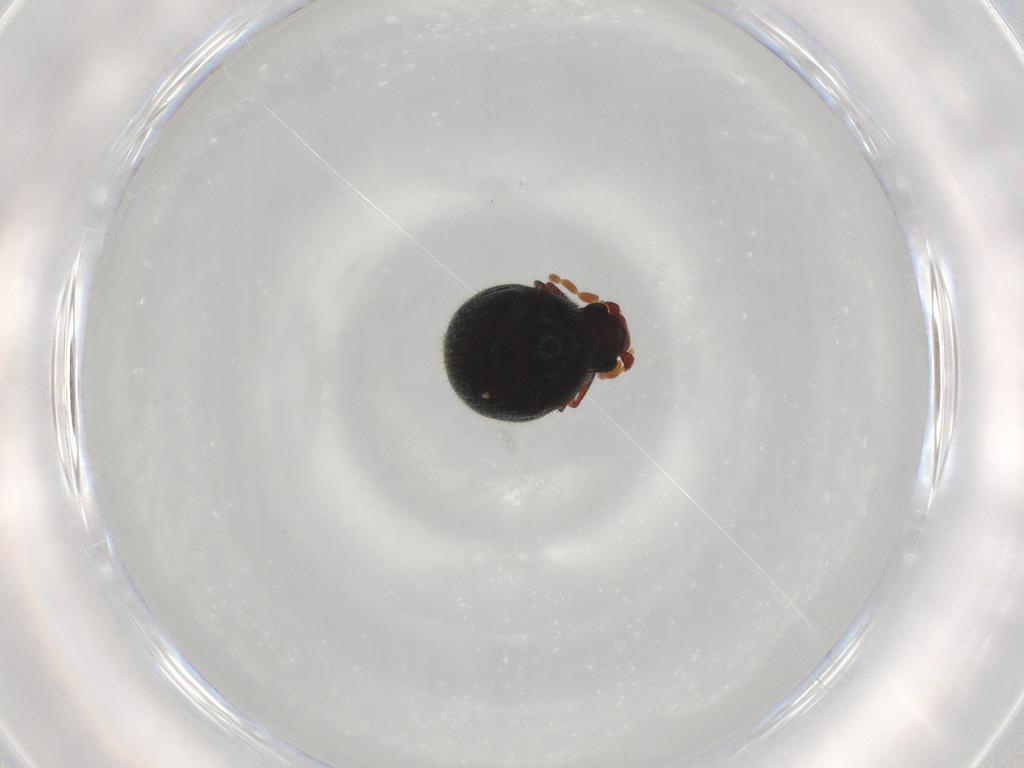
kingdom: Animalia
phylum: Arthropoda
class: Insecta
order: Coleoptera
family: Ptinidae
